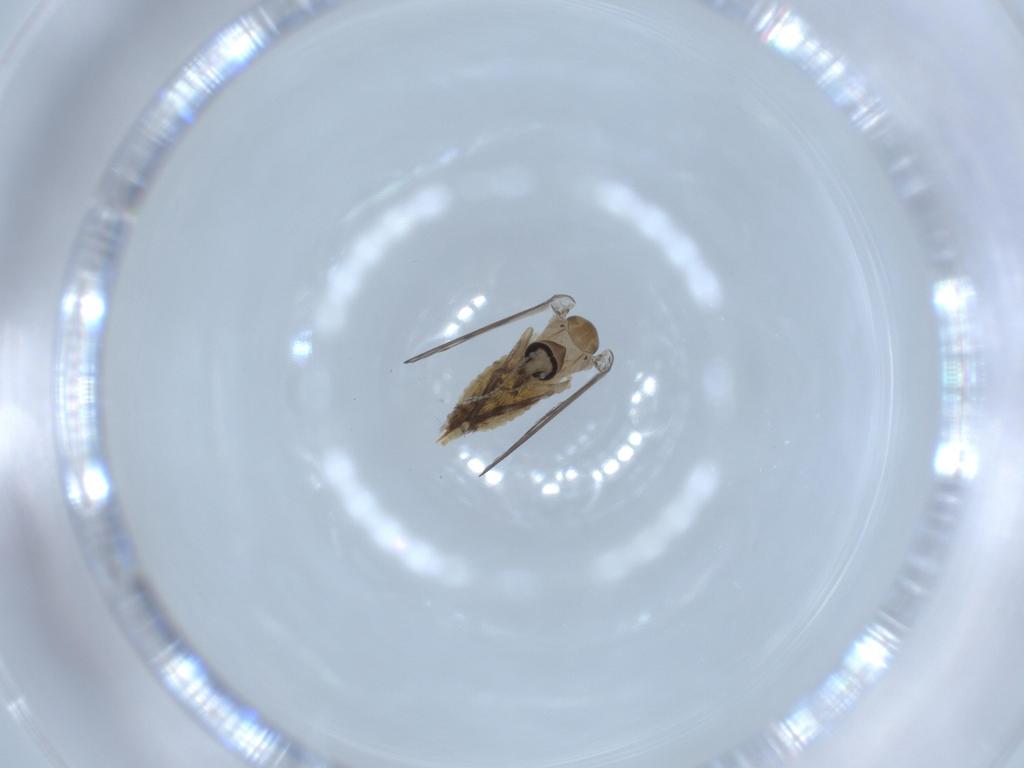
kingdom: Animalia
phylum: Arthropoda
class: Insecta
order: Diptera
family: Psychodidae
